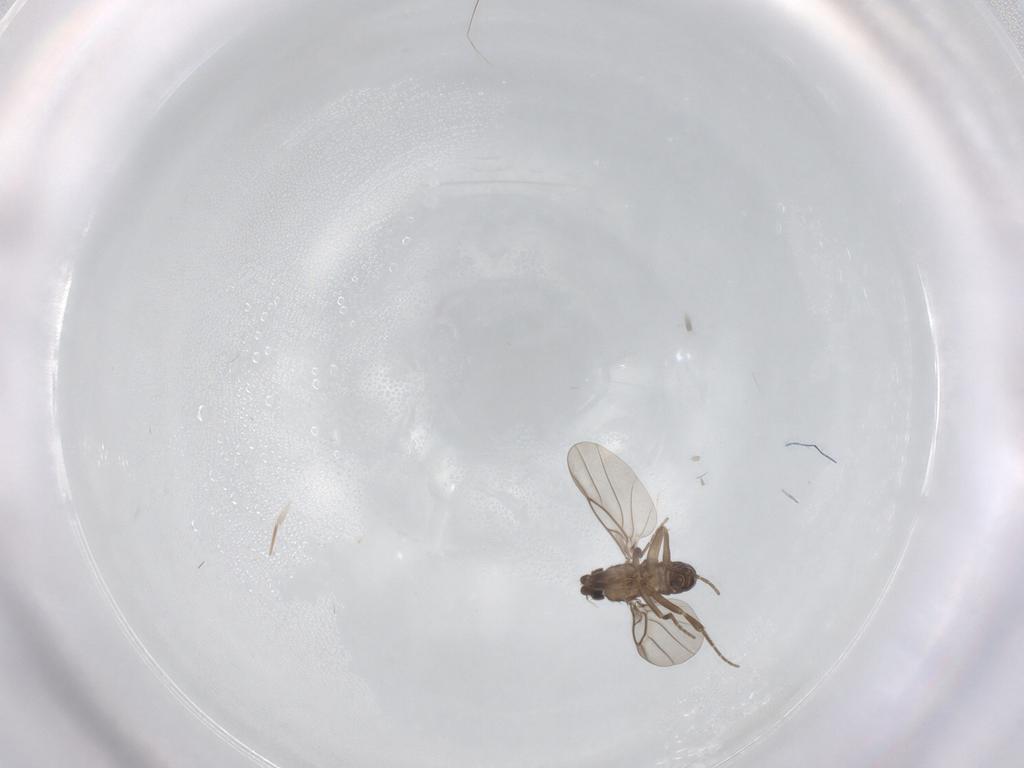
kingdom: Animalia
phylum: Arthropoda
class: Insecta
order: Diptera
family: Phoridae
